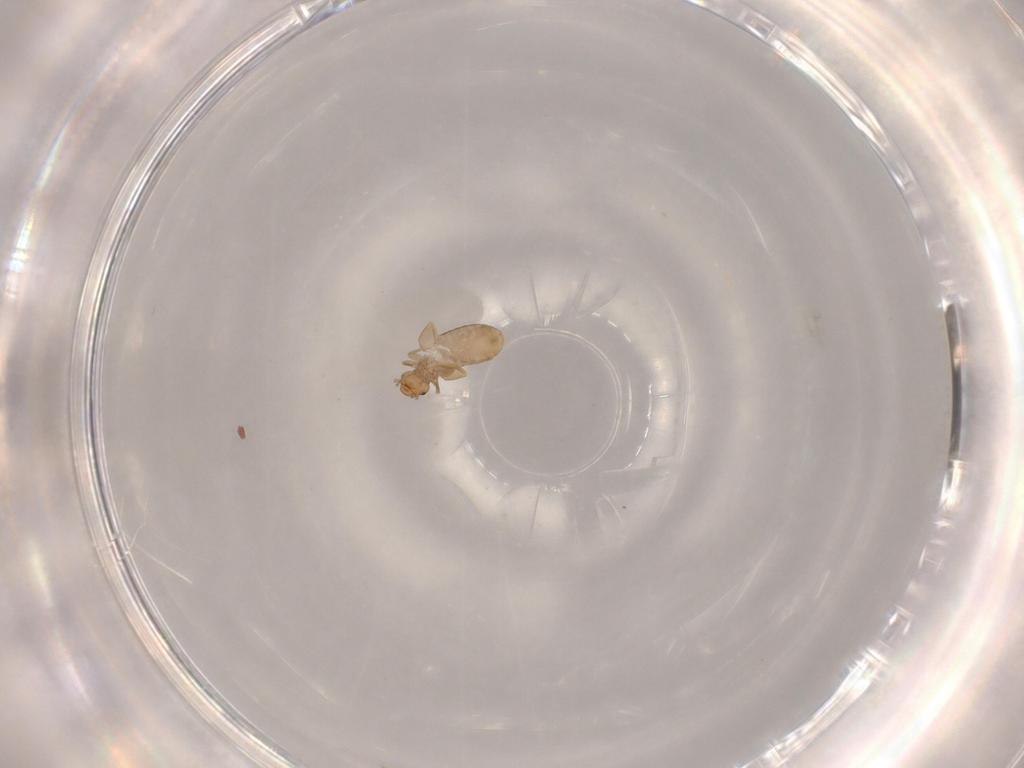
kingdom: Animalia
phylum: Arthropoda
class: Insecta
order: Psocodea
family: Liposcelididae
